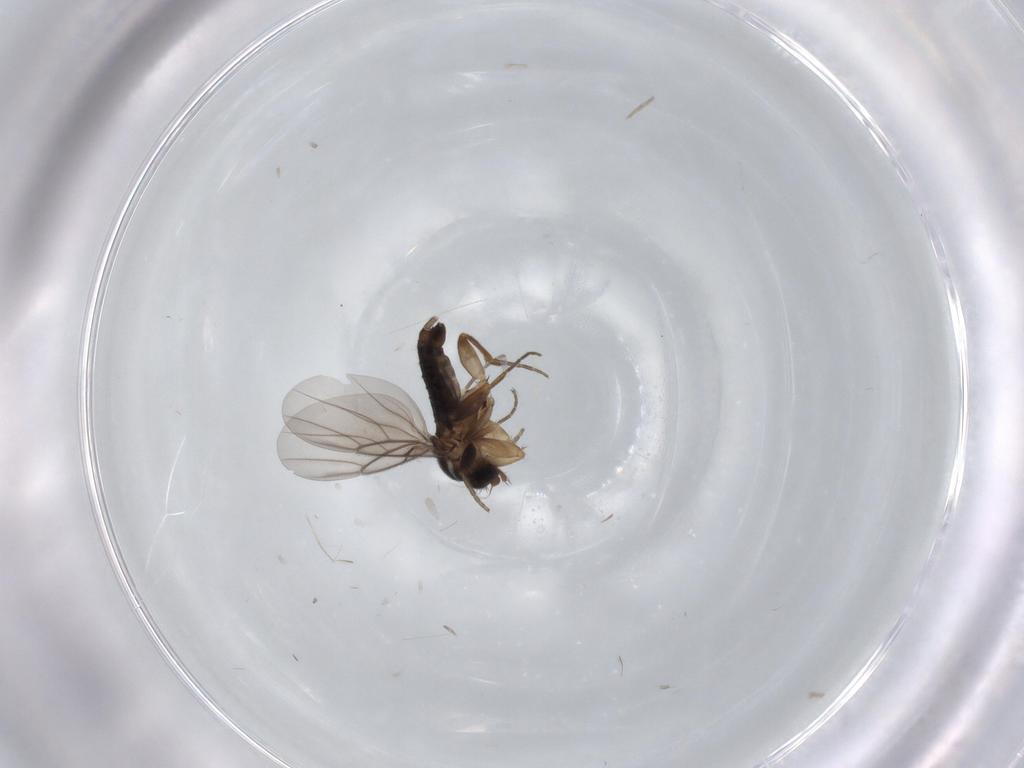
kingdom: Animalia
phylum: Arthropoda
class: Insecta
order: Diptera
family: Phoridae
